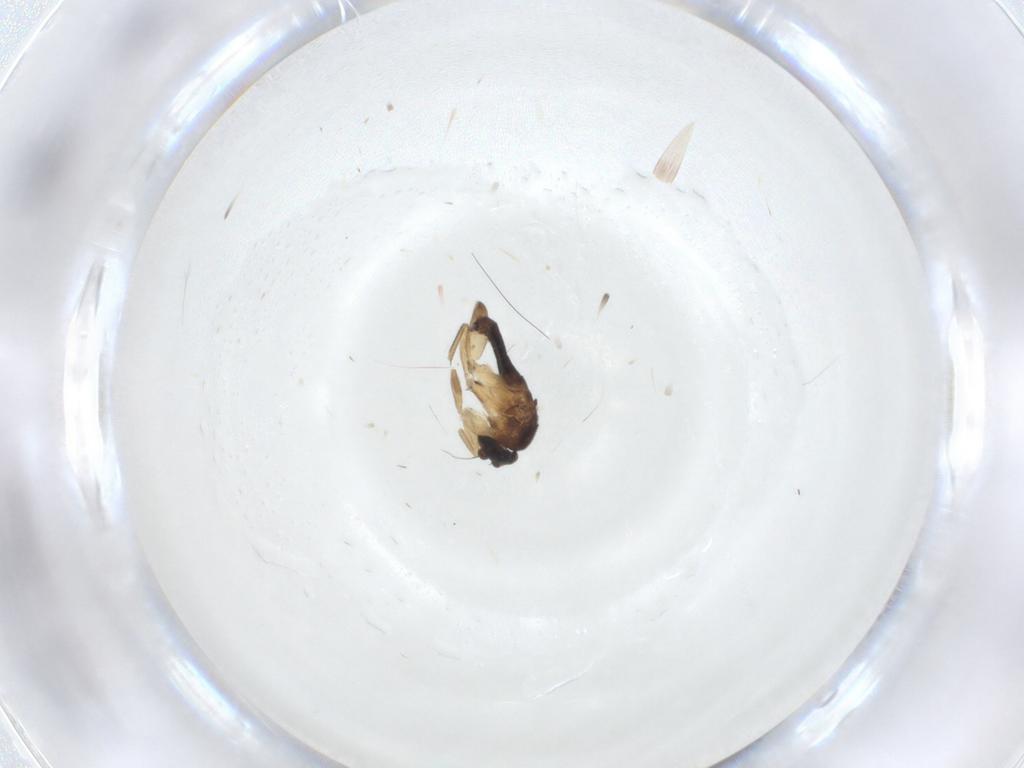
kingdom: Animalia
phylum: Arthropoda
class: Insecta
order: Diptera
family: Phoridae
